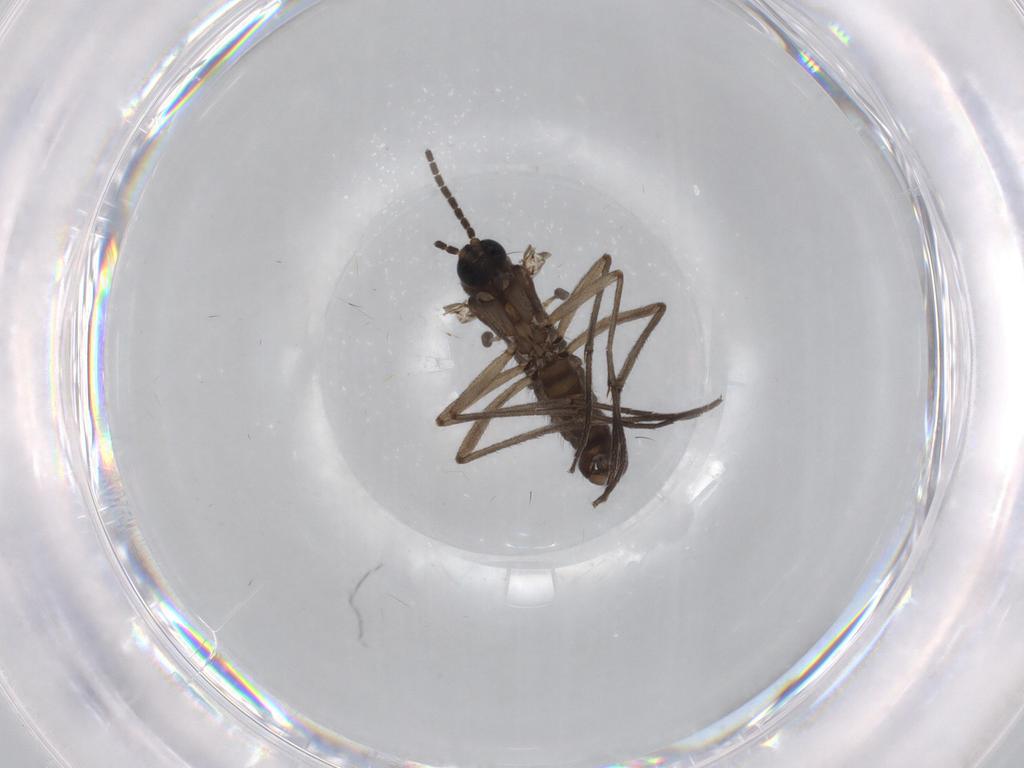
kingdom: Animalia
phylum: Arthropoda
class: Insecta
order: Diptera
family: Sciaridae
